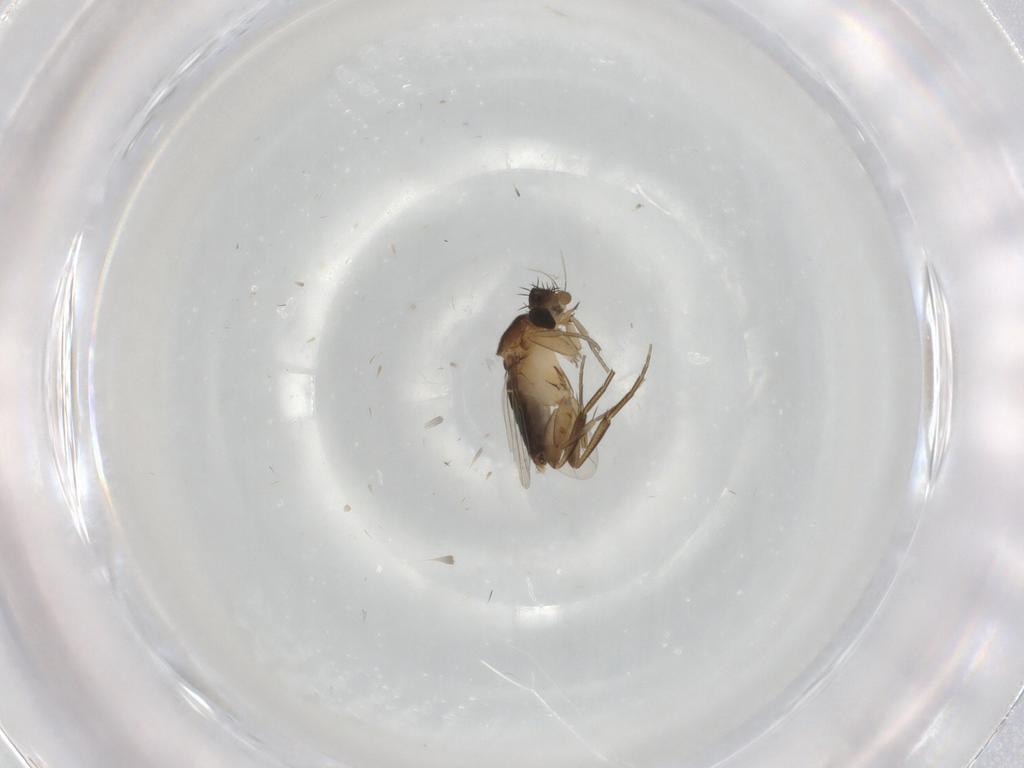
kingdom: Animalia
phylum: Arthropoda
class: Insecta
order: Diptera
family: Phoridae
